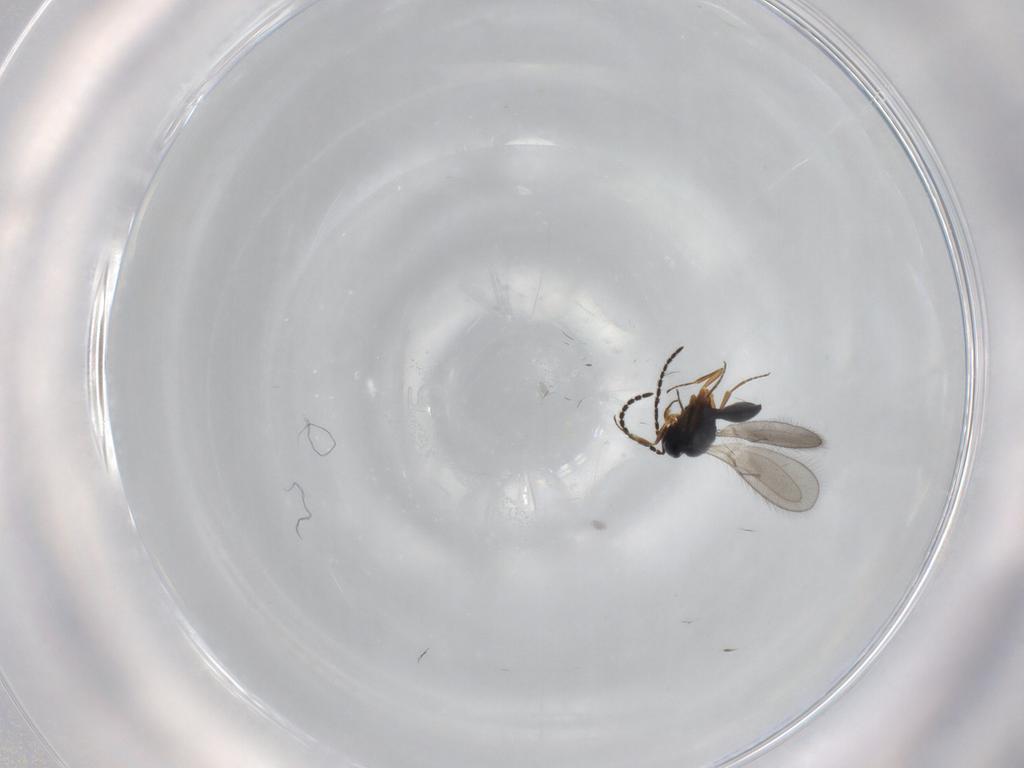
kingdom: Animalia
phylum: Arthropoda
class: Insecta
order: Hymenoptera
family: Scelionidae
